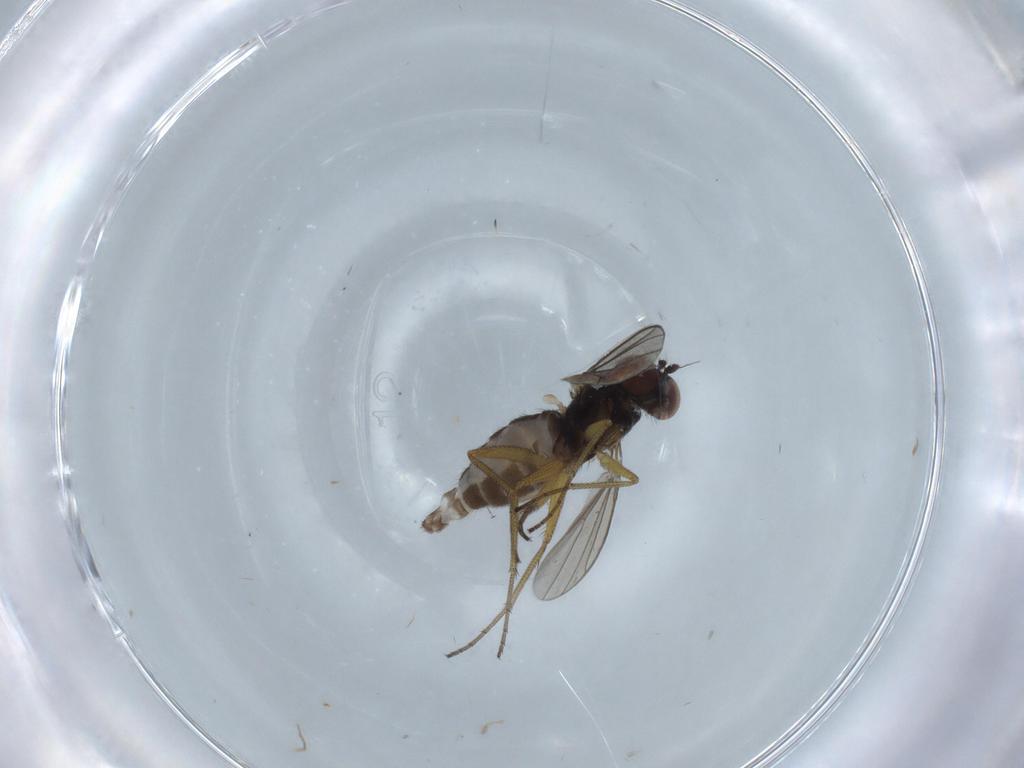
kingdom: Animalia
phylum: Arthropoda
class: Insecta
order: Diptera
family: Dolichopodidae
